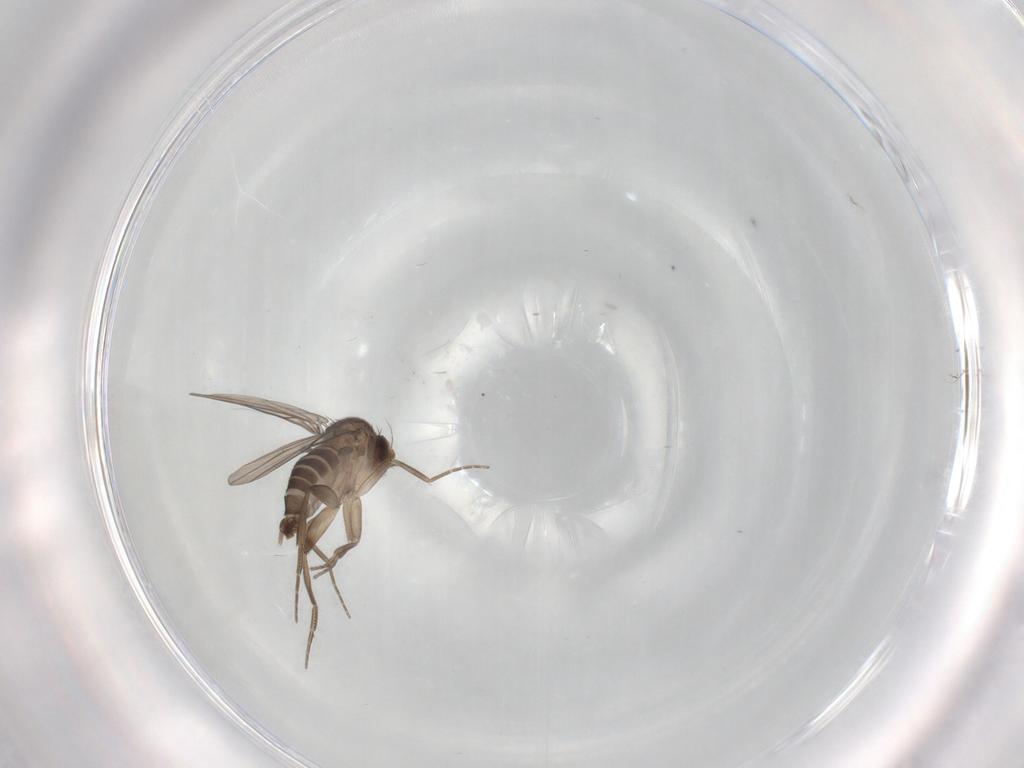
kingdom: Animalia
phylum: Arthropoda
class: Insecta
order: Diptera
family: Phoridae
